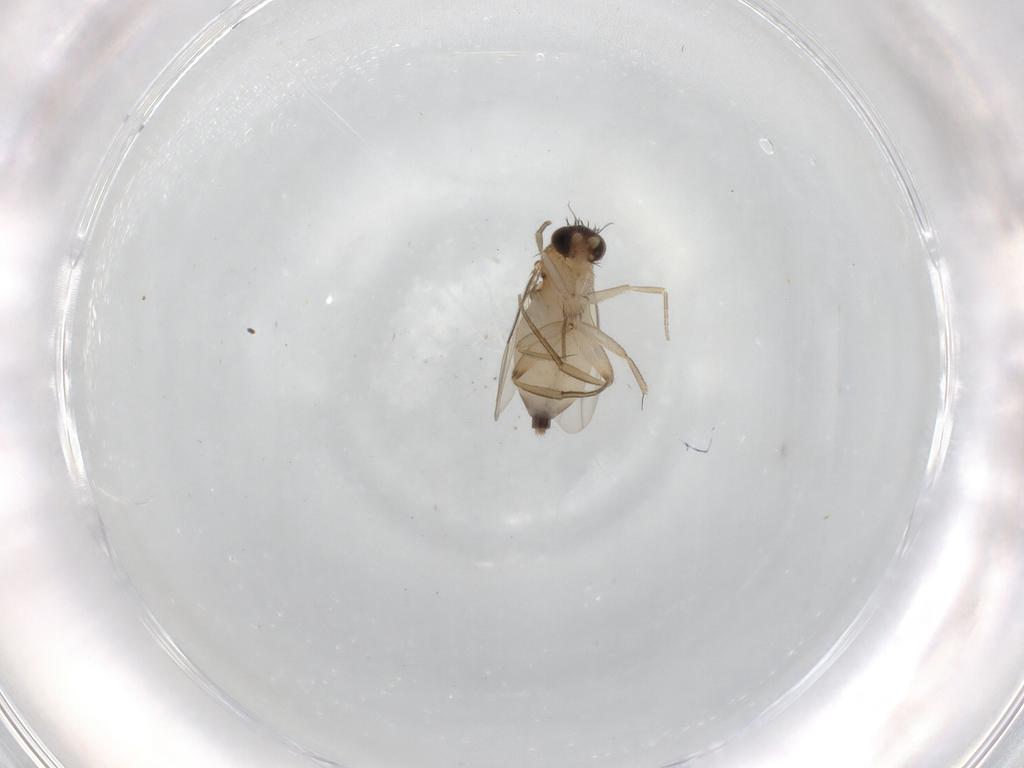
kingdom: Animalia
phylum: Arthropoda
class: Insecta
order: Diptera
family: Phoridae
